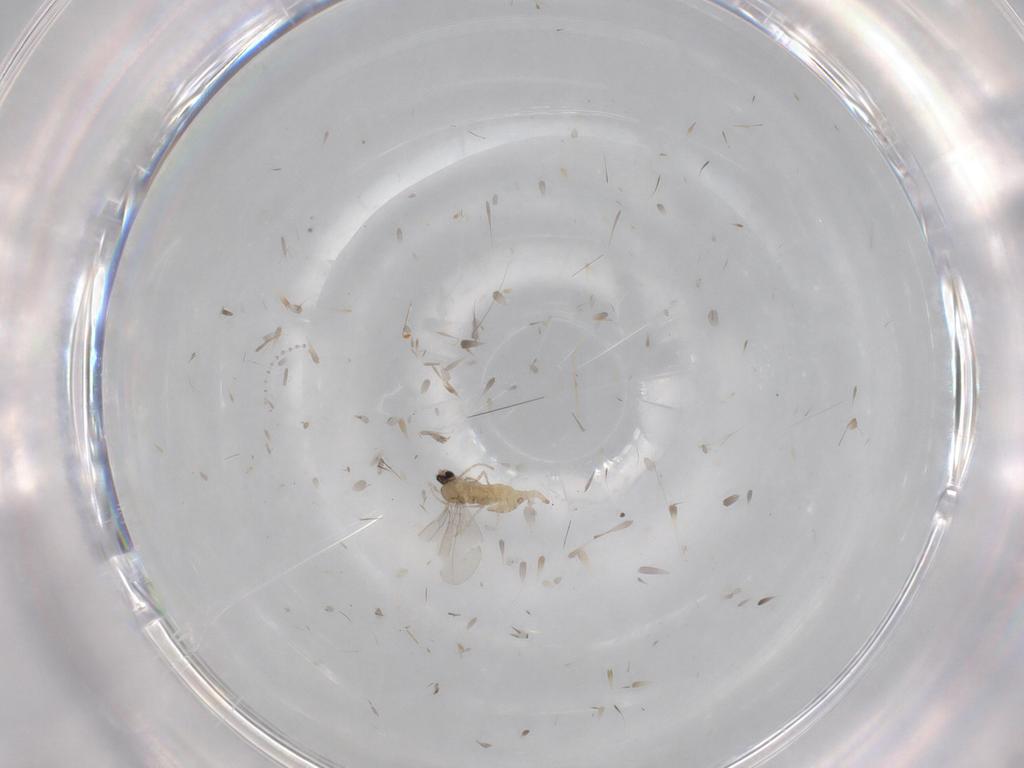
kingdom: Animalia
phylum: Arthropoda
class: Insecta
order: Diptera
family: Cecidomyiidae
